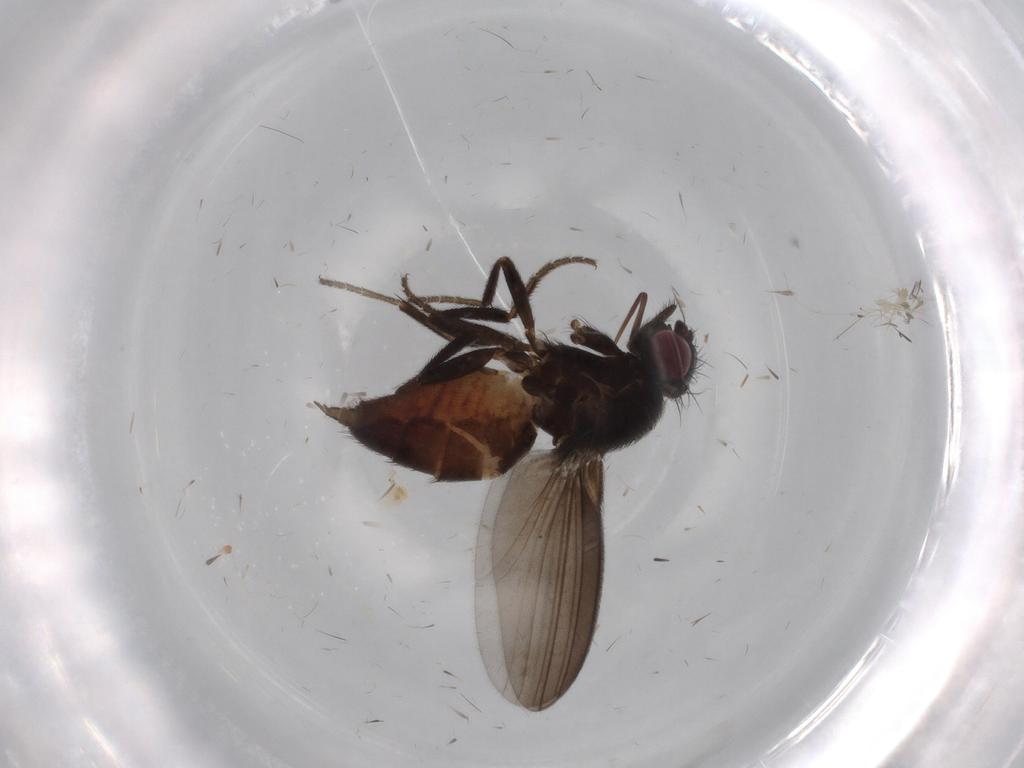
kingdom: Animalia
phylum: Arthropoda
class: Insecta
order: Diptera
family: Milichiidae
